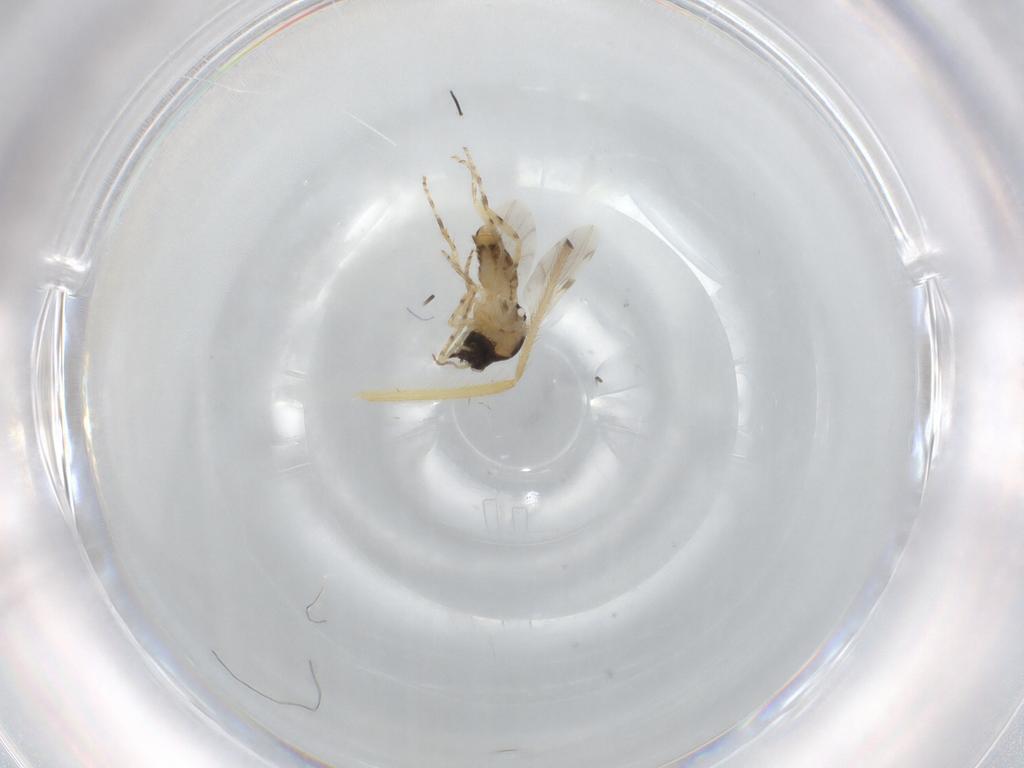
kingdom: Animalia
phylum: Arthropoda
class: Insecta
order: Diptera
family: Ceratopogonidae
